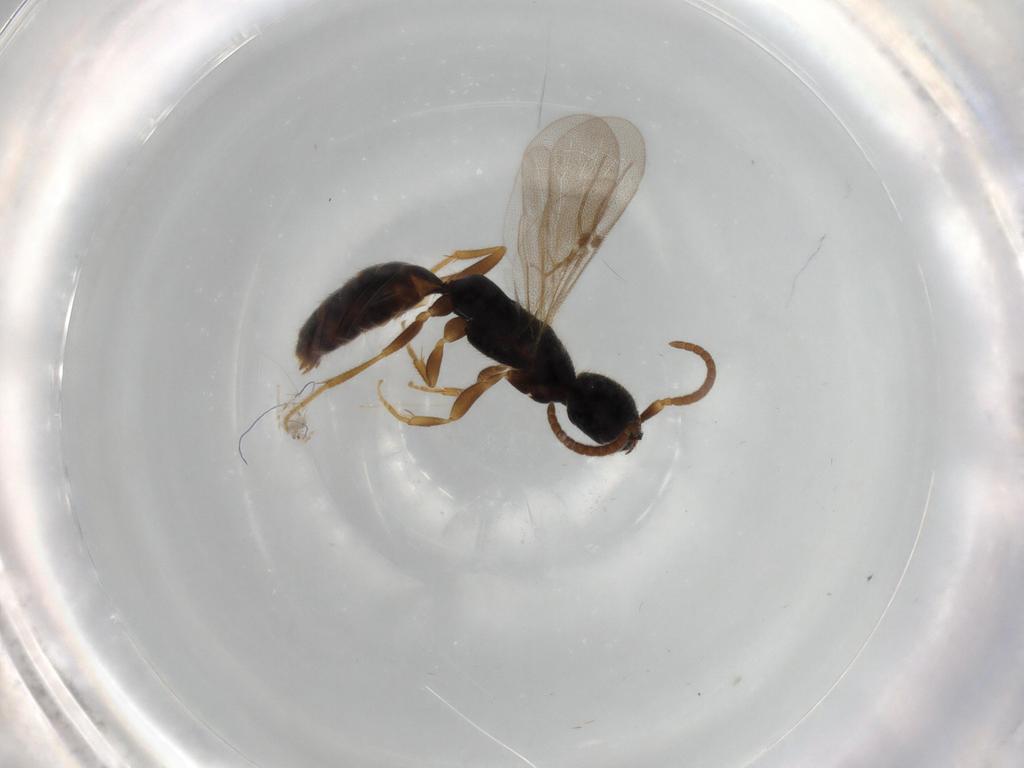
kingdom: Animalia
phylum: Arthropoda
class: Insecta
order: Hymenoptera
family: Bethylidae
